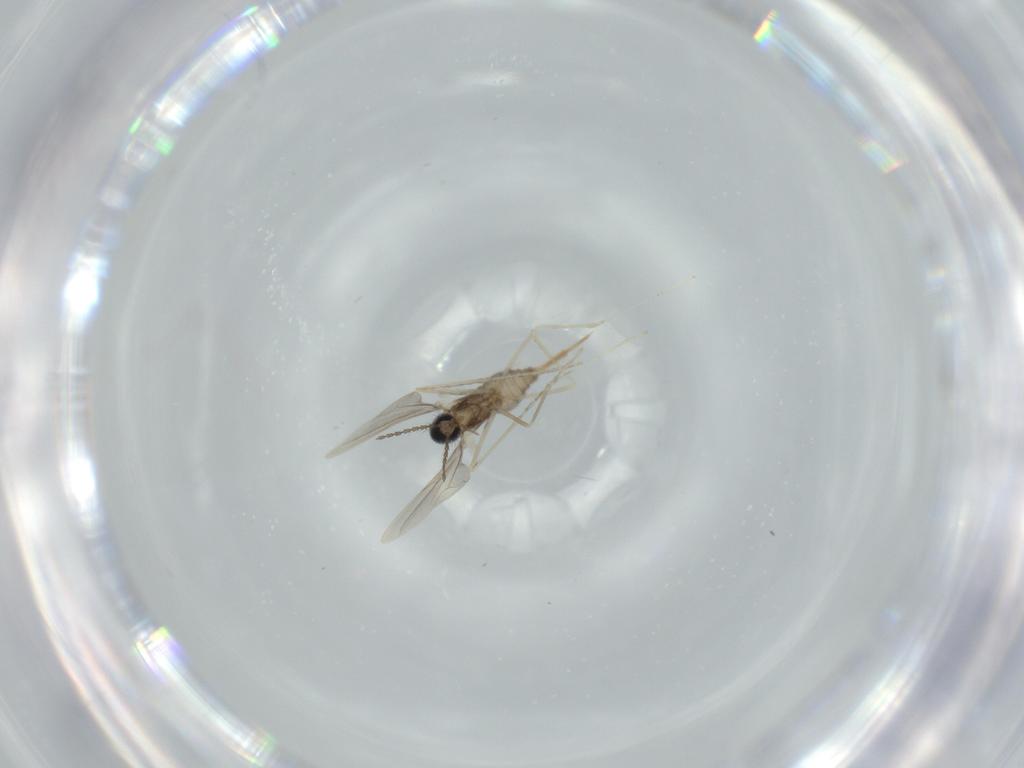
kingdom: Animalia
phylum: Arthropoda
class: Insecta
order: Diptera
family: Cecidomyiidae
